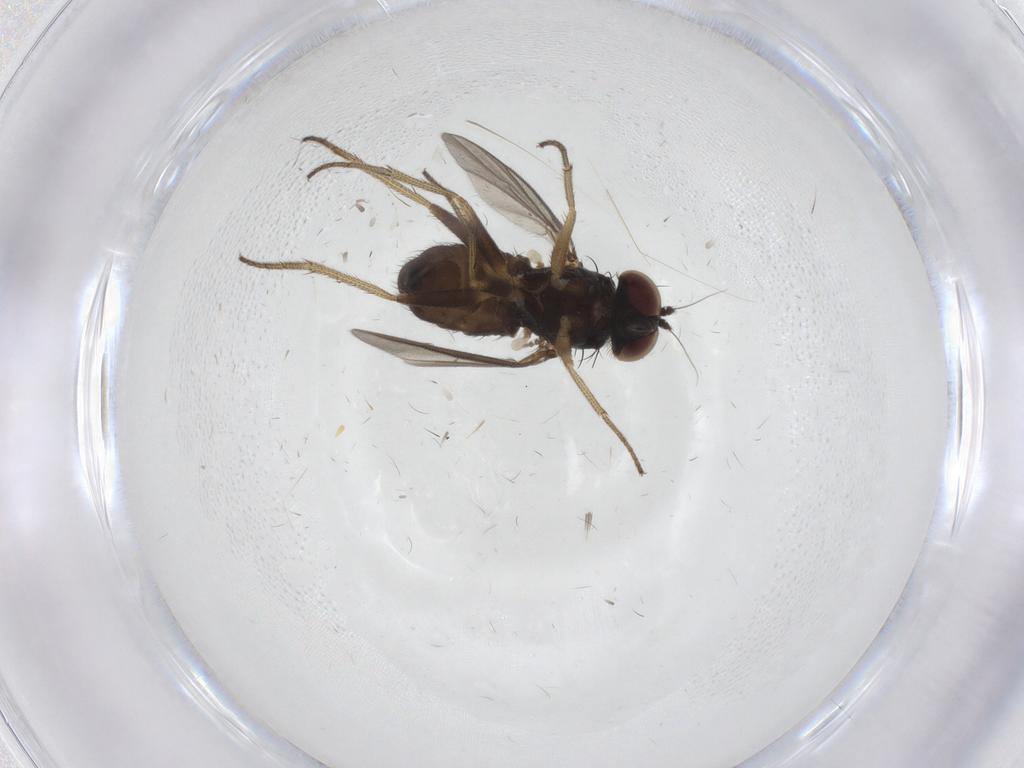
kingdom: Animalia
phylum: Arthropoda
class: Insecta
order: Diptera
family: Dolichopodidae
